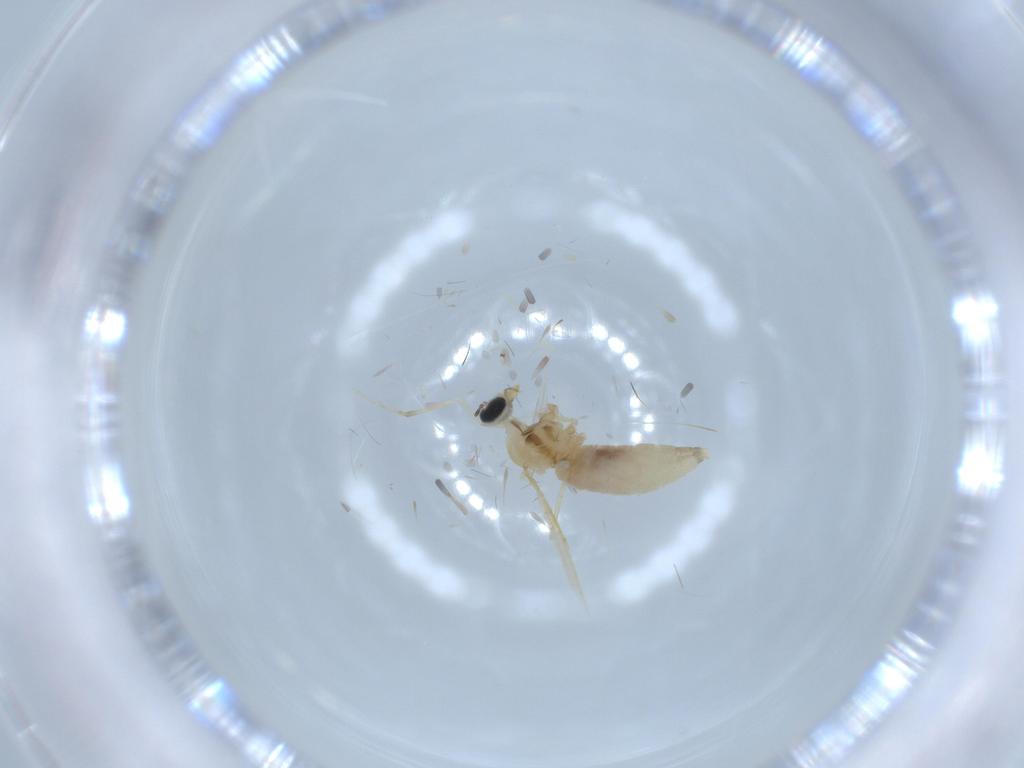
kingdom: Animalia
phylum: Arthropoda
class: Insecta
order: Diptera
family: Cecidomyiidae
